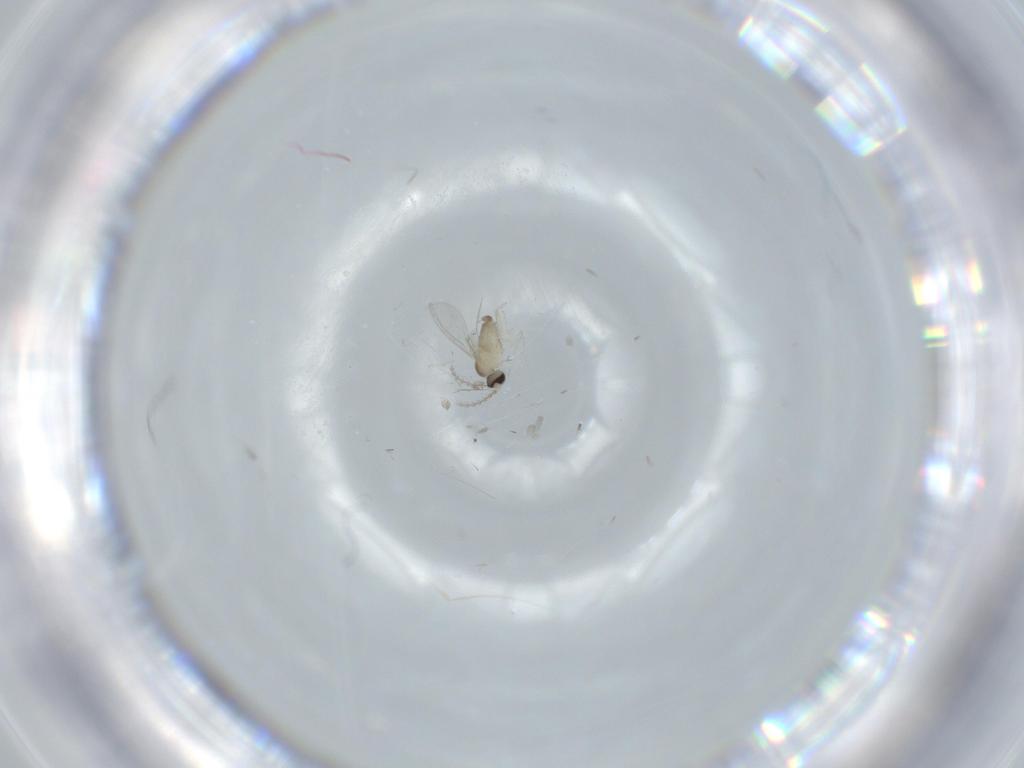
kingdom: Animalia
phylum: Arthropoda
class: Insecta
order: Diptera
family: Cecidomyiidae
